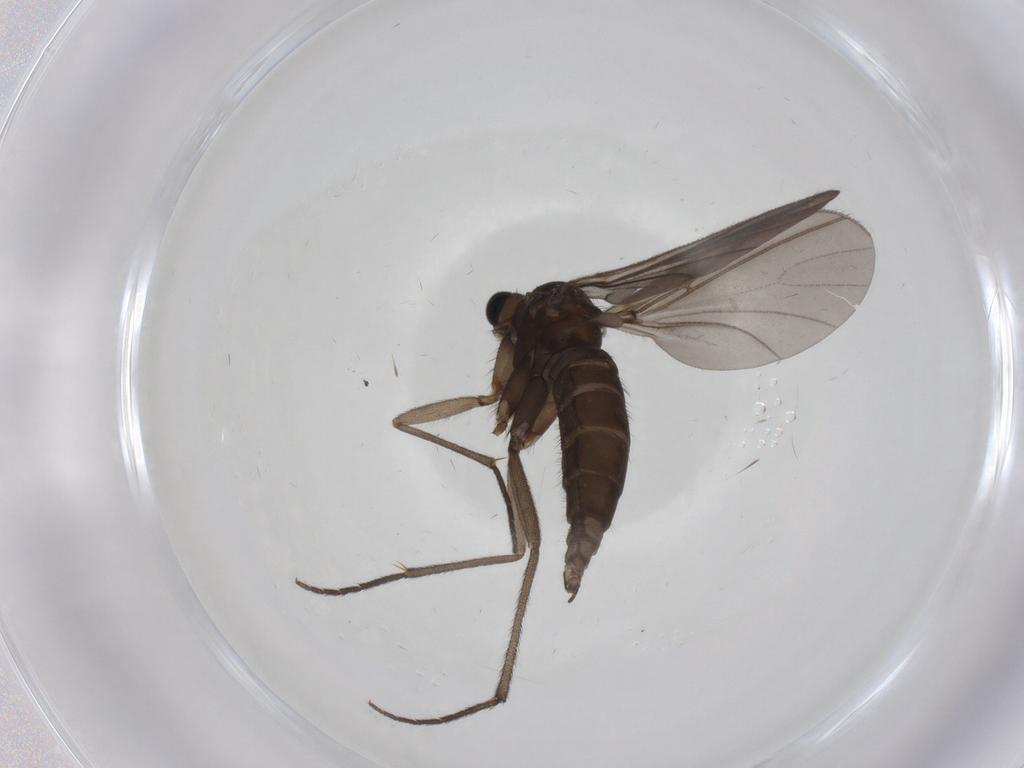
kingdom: Animalia
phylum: Arthropoda
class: Insecta
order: Diptera
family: Sciaridae
